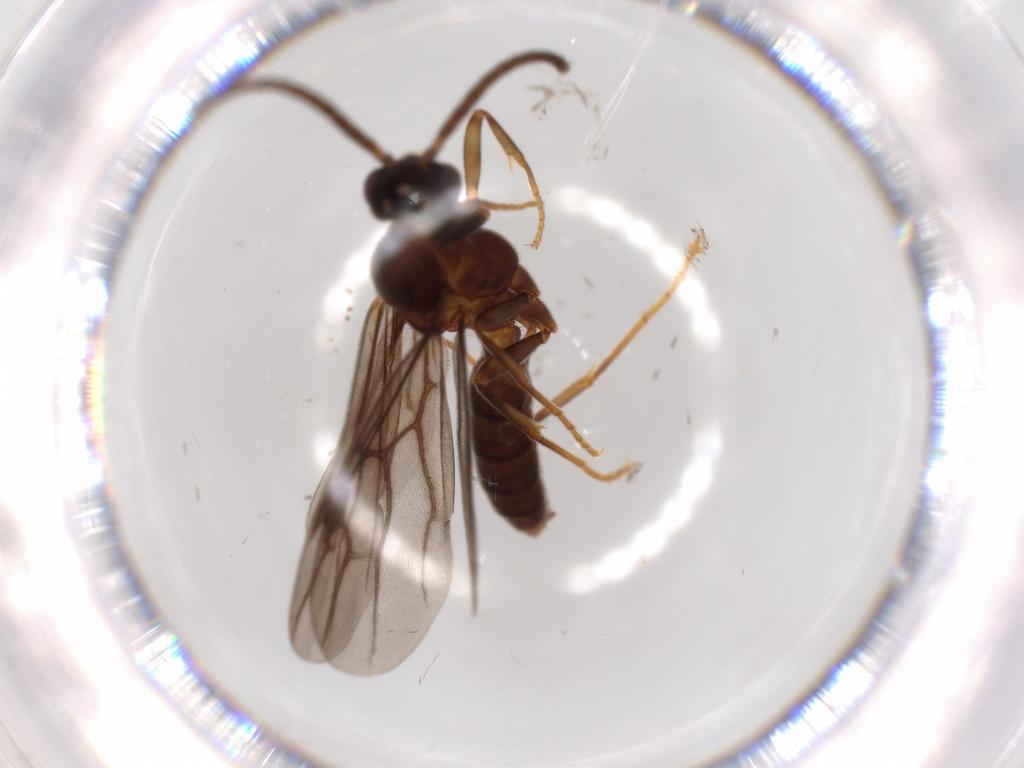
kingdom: Animalia
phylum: Arthropoda
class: Insecta
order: Hymenoptera
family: Formicidae
